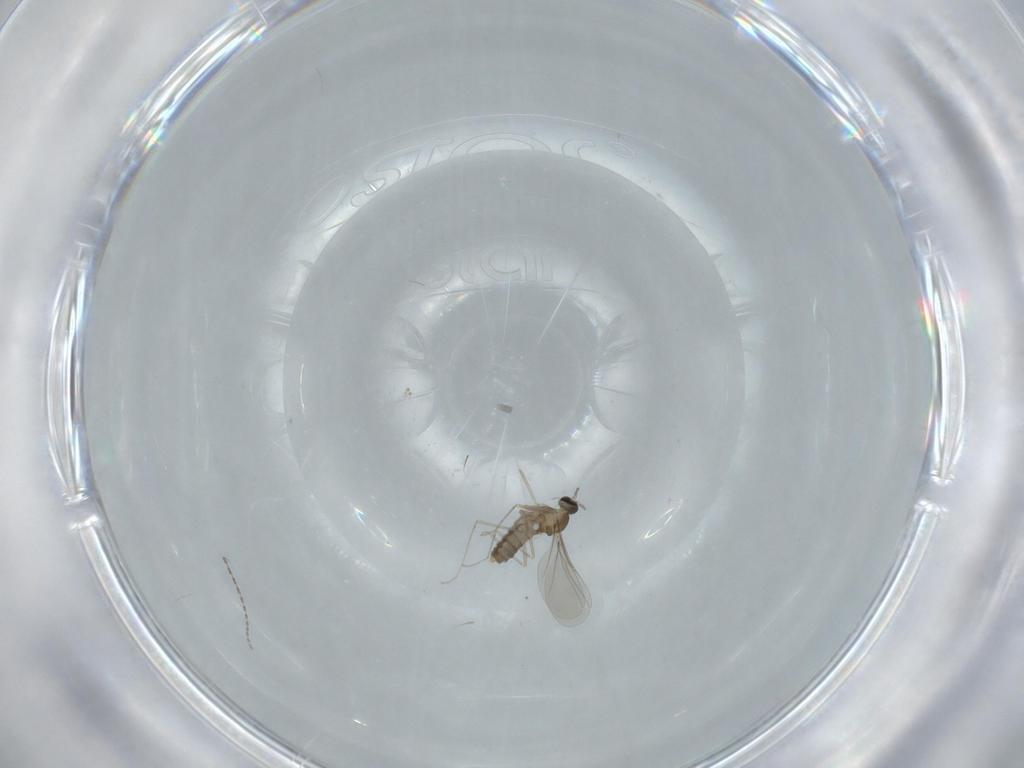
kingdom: Animalia
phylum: Arthropoda
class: Insecta
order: Diptera
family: Cecidomyiidae
